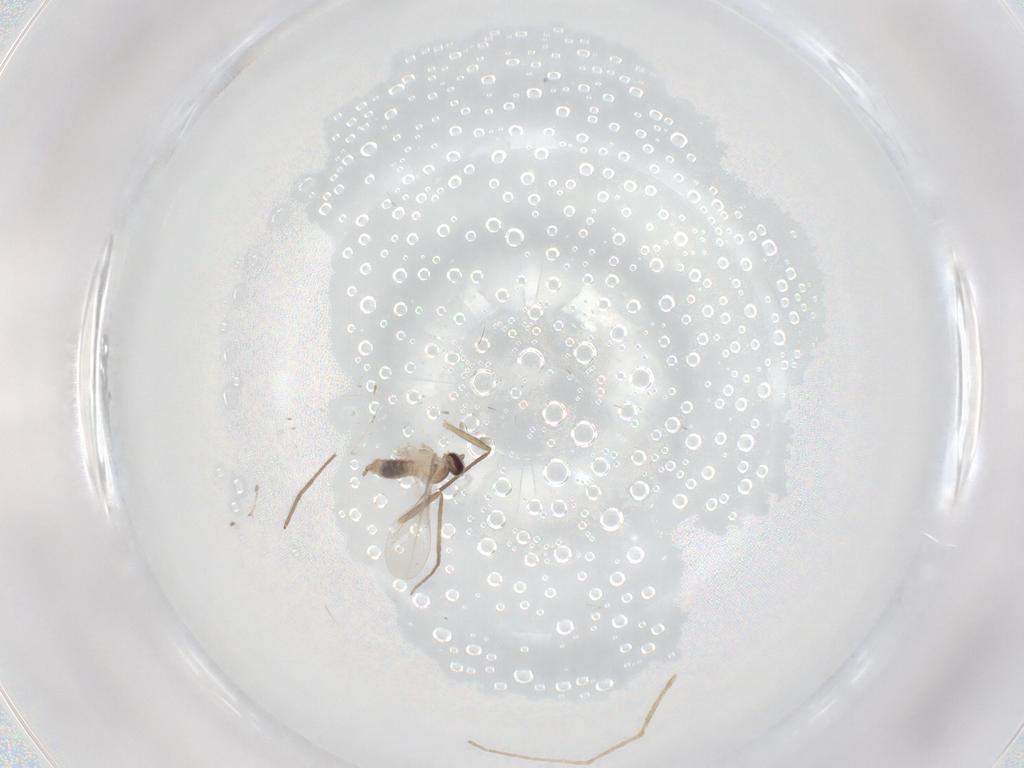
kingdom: Animalia
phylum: Arthropoda
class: Insecta
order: Diptera
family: Chironomidae
